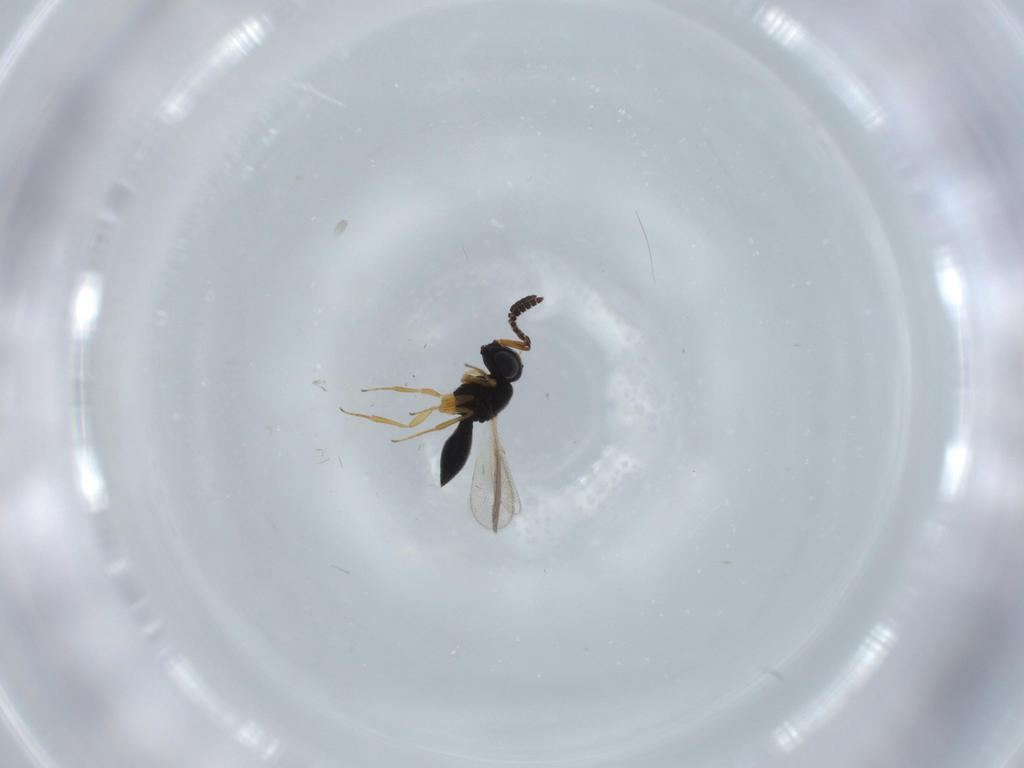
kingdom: Animalia
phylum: Arthropoda
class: Insecta
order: Hymenoptera
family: Scelionidae
